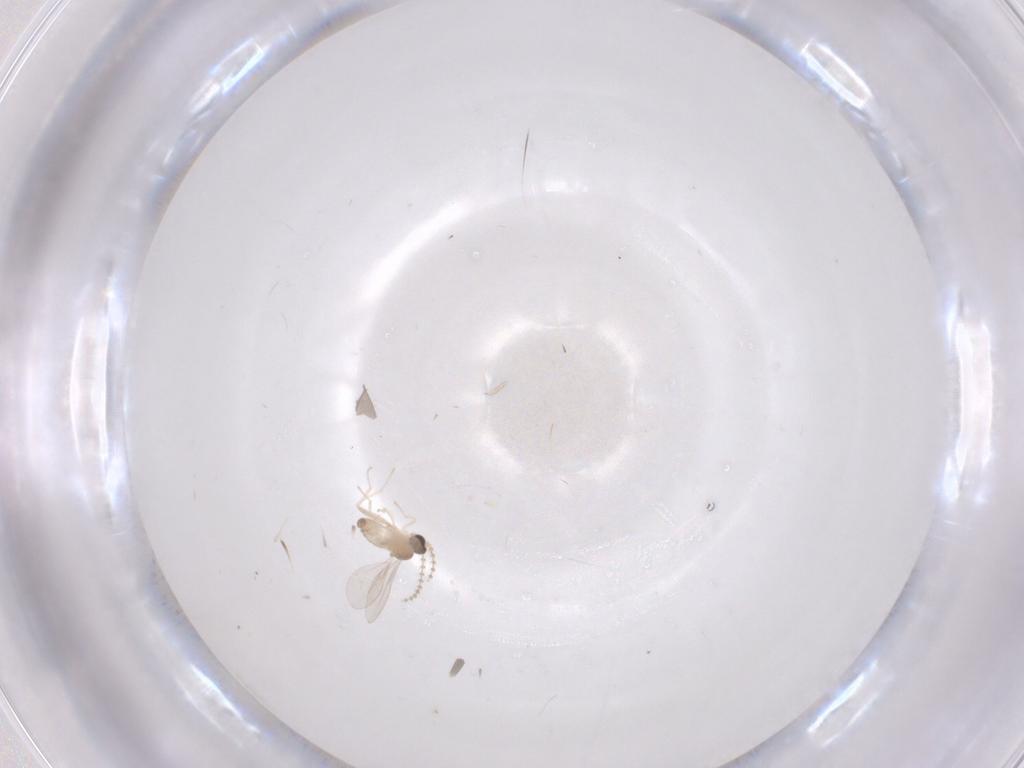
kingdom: Animalia
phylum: Arthropoda
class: Insecta
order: Diptera
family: Cecidomyiidae
